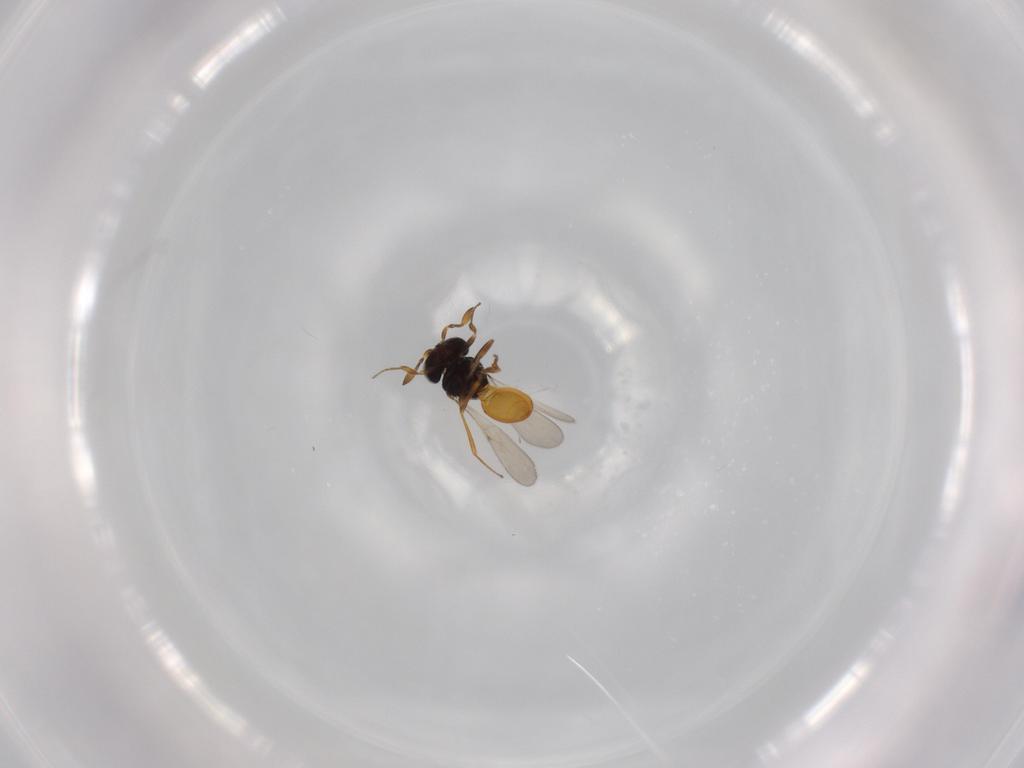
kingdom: Animalia
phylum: Arthropoda
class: Insecta
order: Hymenoptera
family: Scelionidae
